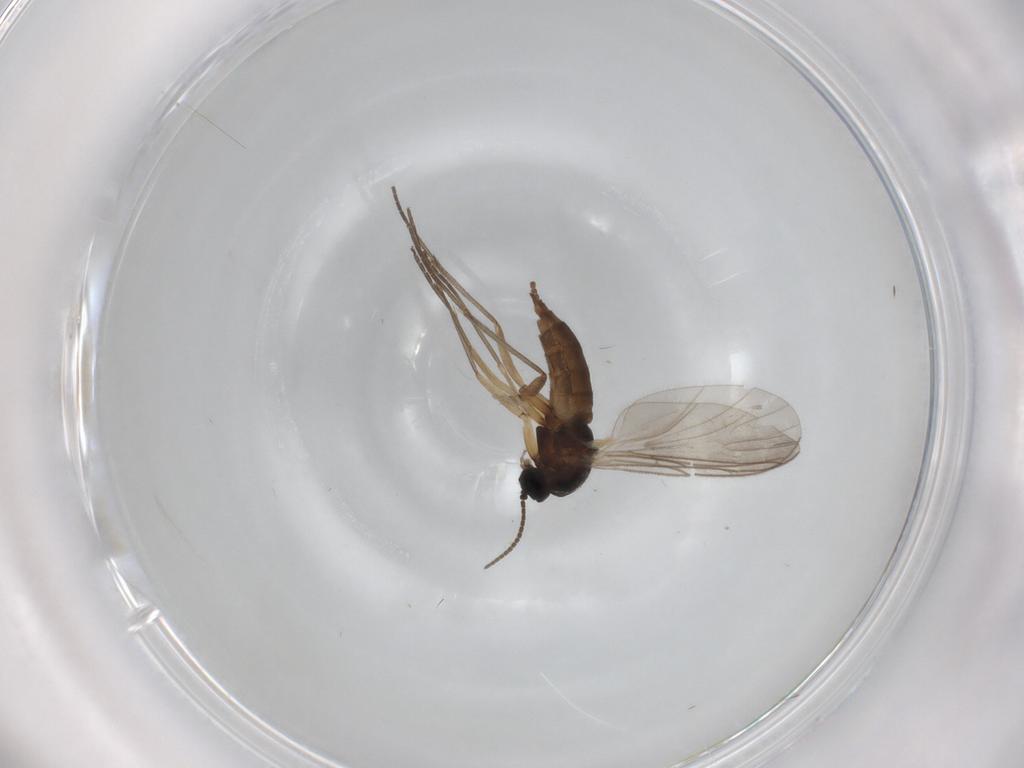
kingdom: Animalia
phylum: Arthropoda
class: Insecta
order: Diptera
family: Sciaridae
